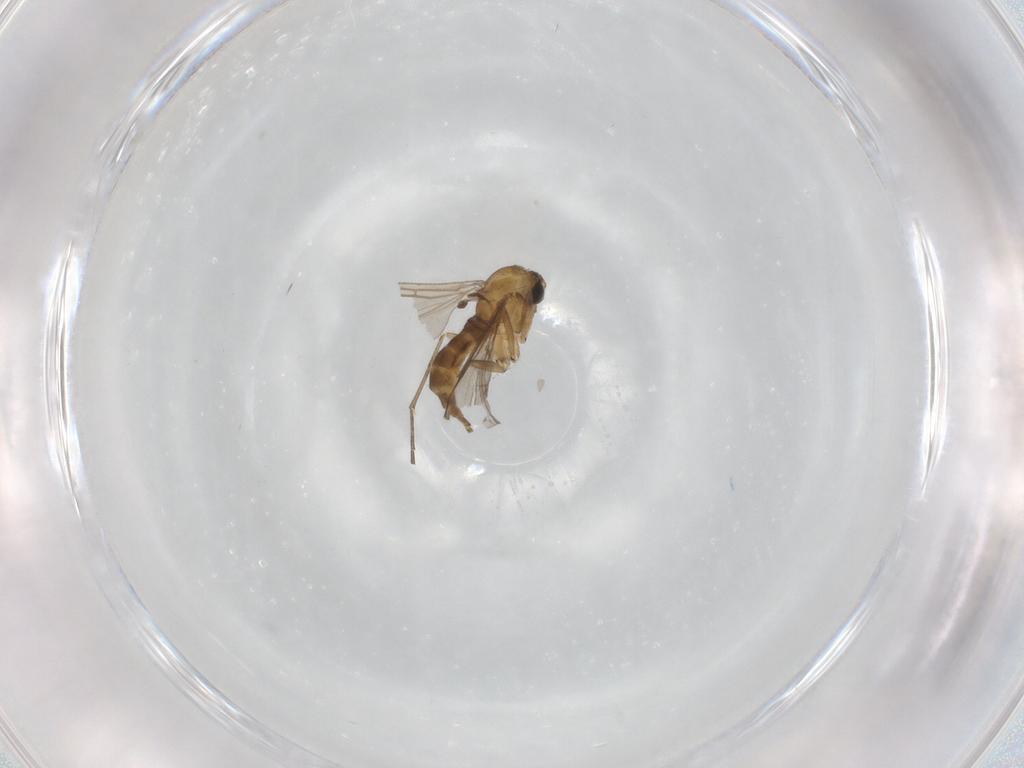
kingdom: Animalia
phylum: Arthropoda
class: Insecta
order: Diptera
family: Sciaridae
